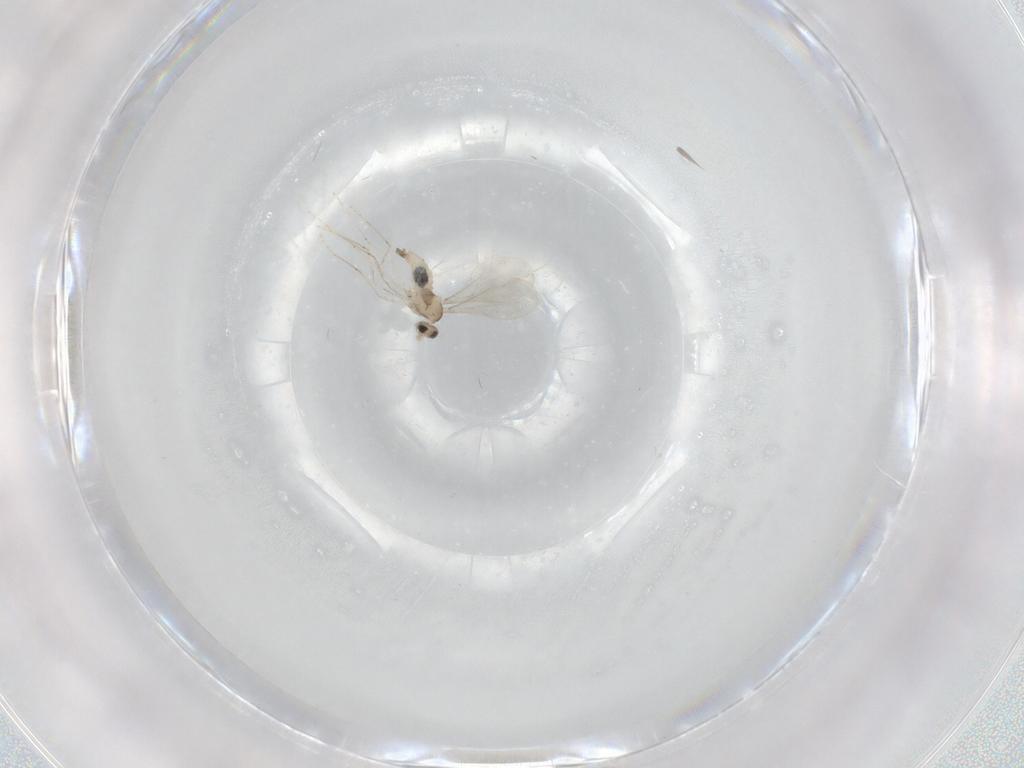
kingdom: Animalia
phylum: Arthropoda
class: Insecta
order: Diptera
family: Cecidomyiidae
